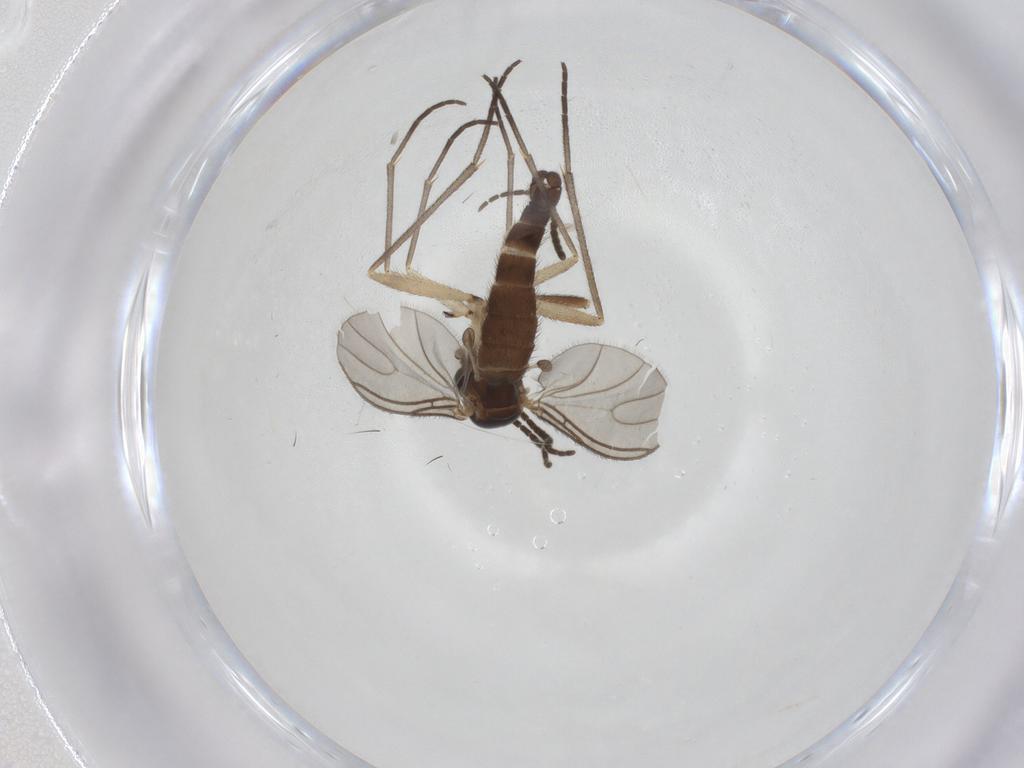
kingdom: Animalia
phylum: Arthropoda
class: Insecta
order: Diptera
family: Sciaridae
